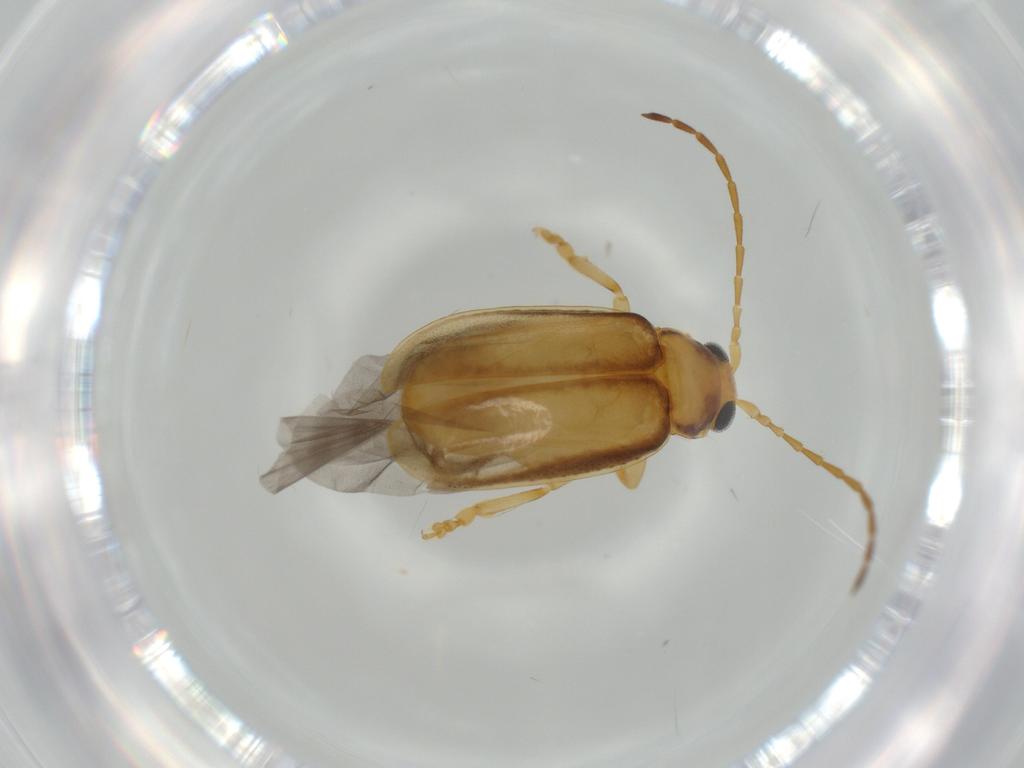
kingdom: Animalia
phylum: Arthropoda
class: Insecta
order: Coleoptera
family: Chrysomelidae
